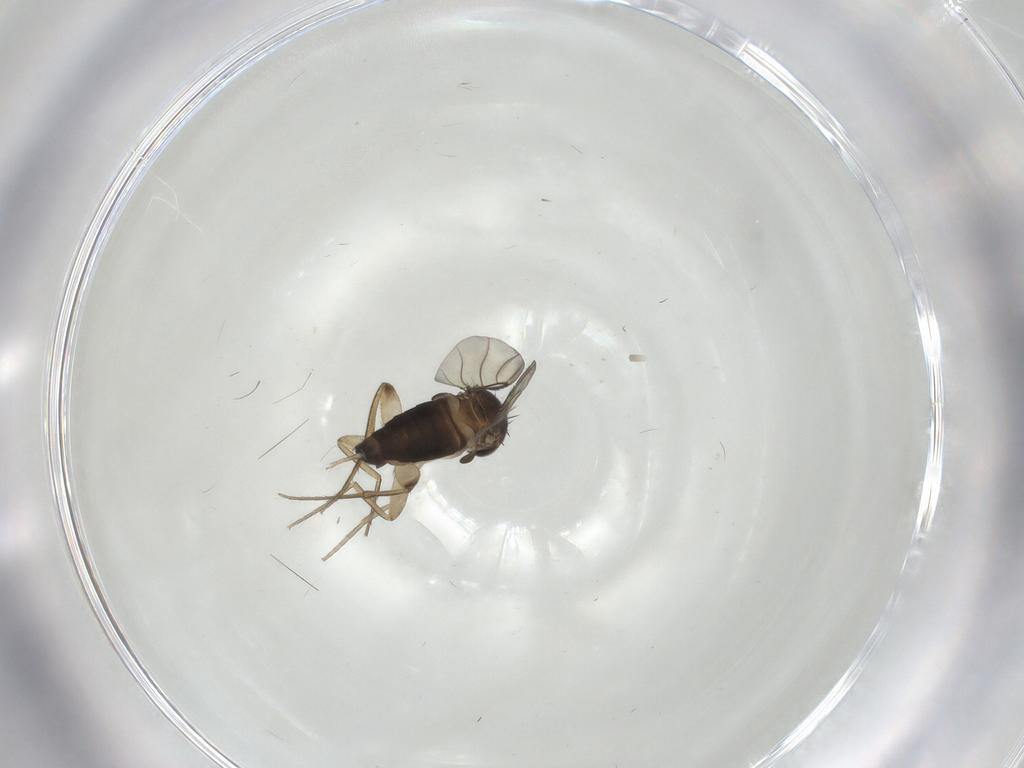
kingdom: Animalia
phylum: Arthropoda
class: Insecta
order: Diptera
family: Phoridae
